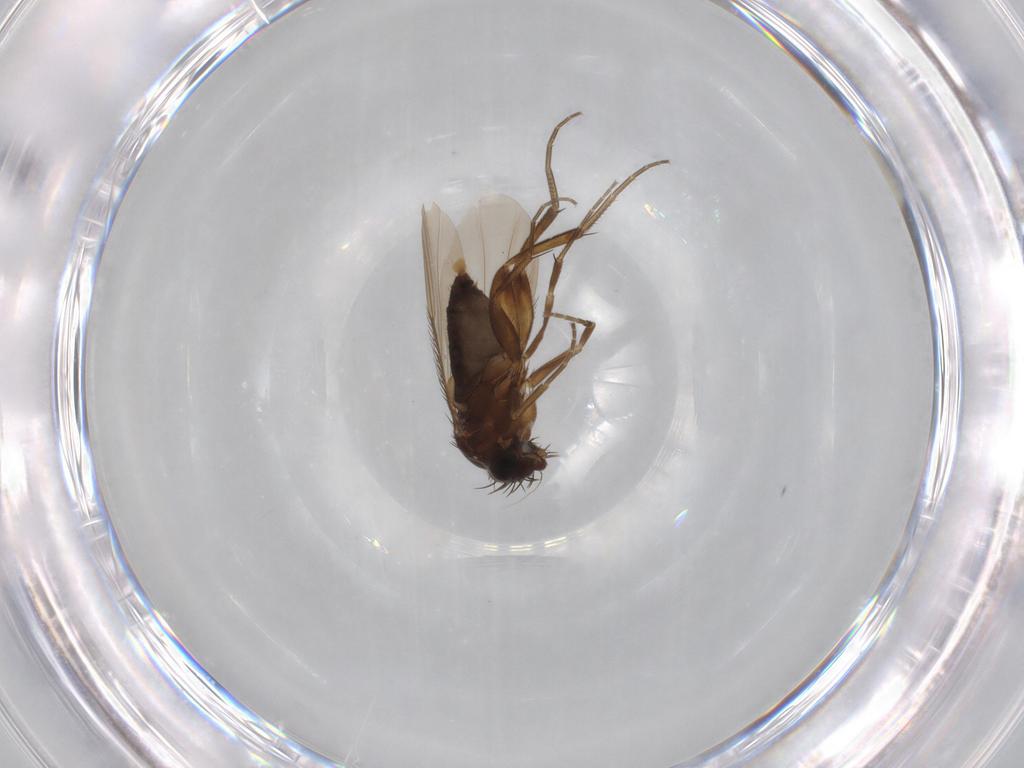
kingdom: Animalia
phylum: Arthropoda
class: Insecta
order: Diptera
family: Phoridae
